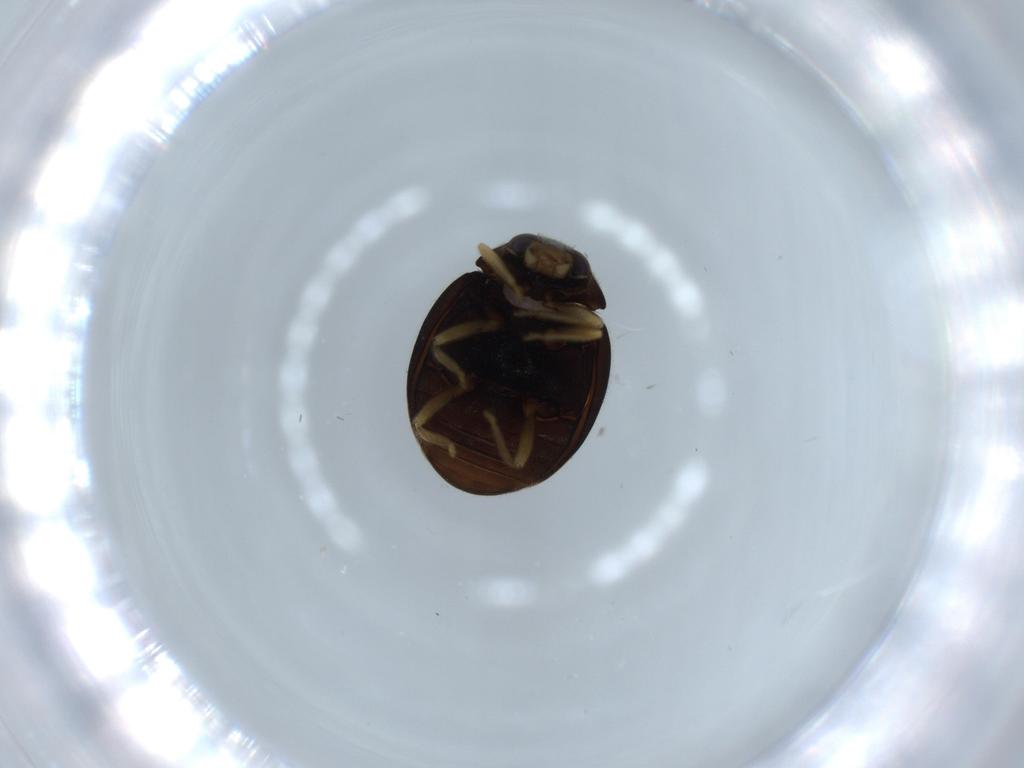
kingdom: Animalia
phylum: Arthropoda
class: Insecta
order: Coleoptera
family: Coccinellidae
